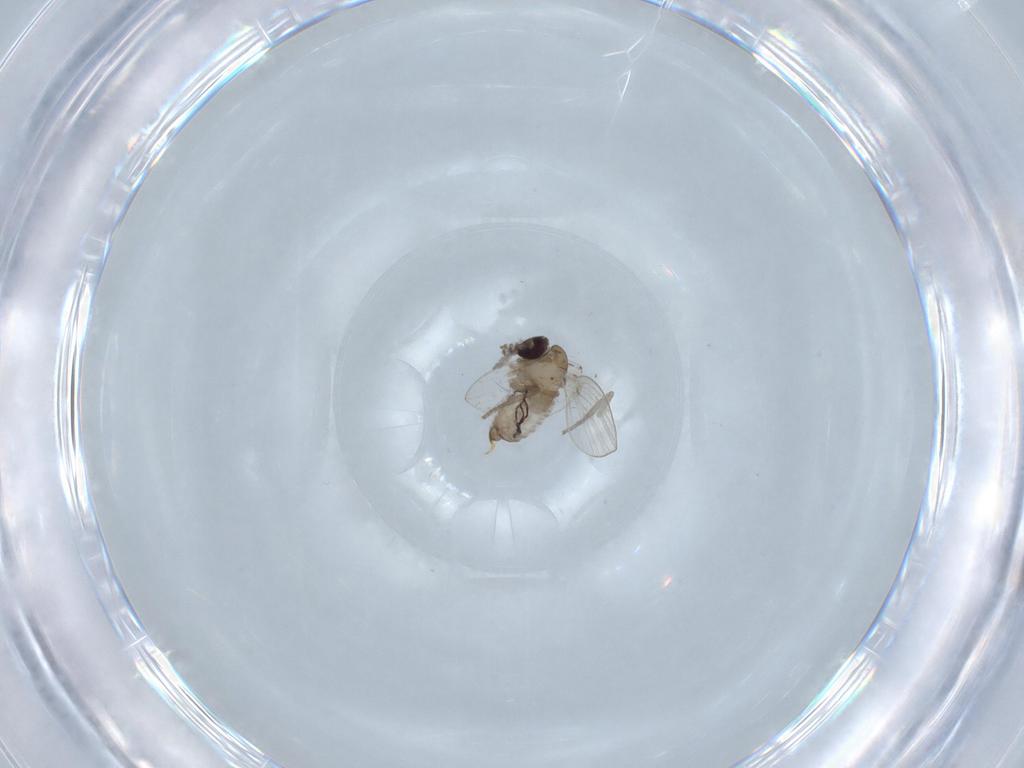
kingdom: Animalia
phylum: Arthropoda
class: Insecta
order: Diptera
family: Psychodidae
